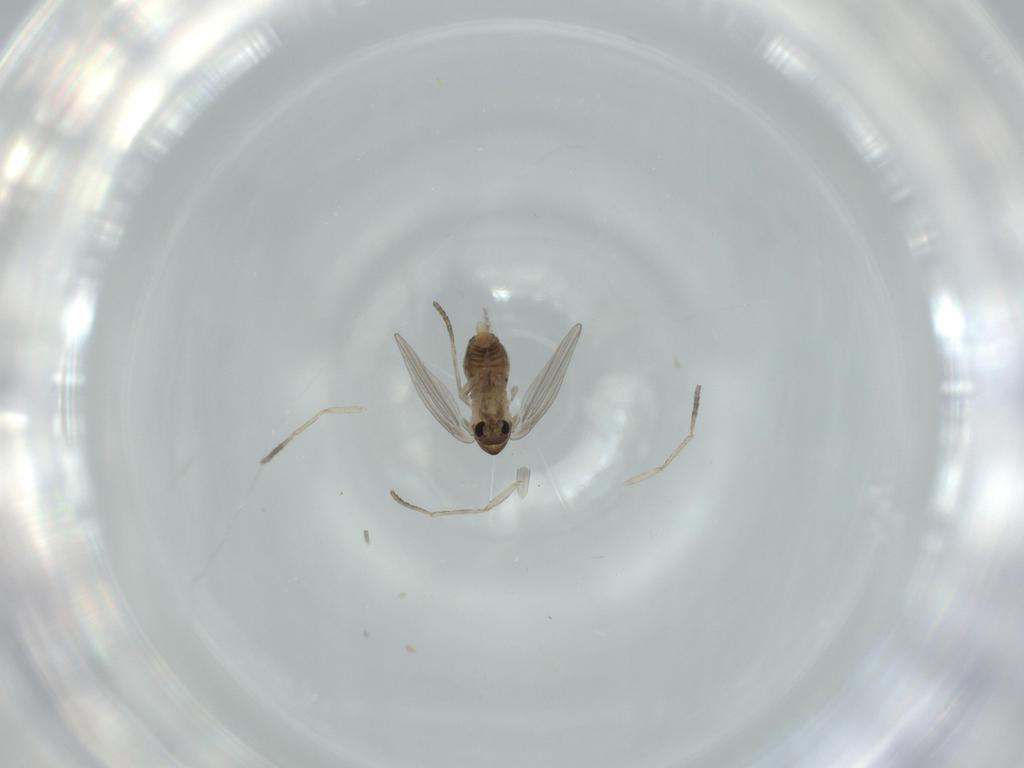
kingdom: Animalia
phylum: Arthropoda
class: Insecta
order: Diptera
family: Psychodidae
